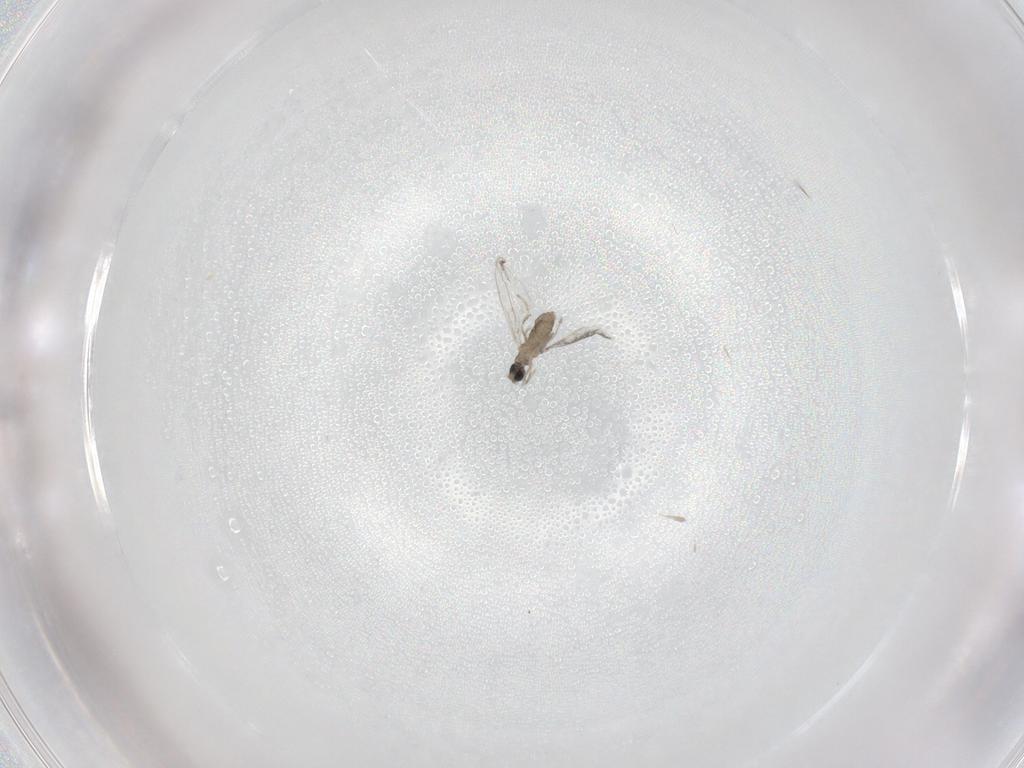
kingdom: Animalia
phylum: Arthropoda
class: Insecta
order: Diptera
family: Cecidomyiidae
